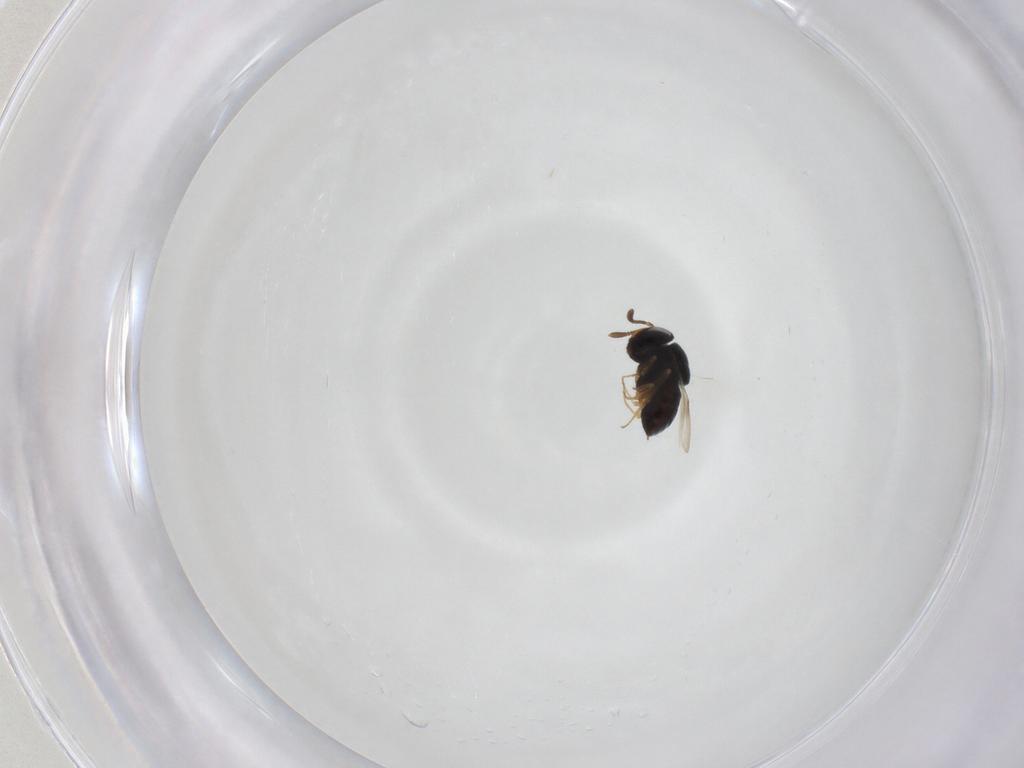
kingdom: Animalia
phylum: Arthropoda
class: Insecta
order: Hymenoptera
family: Scelionidae
